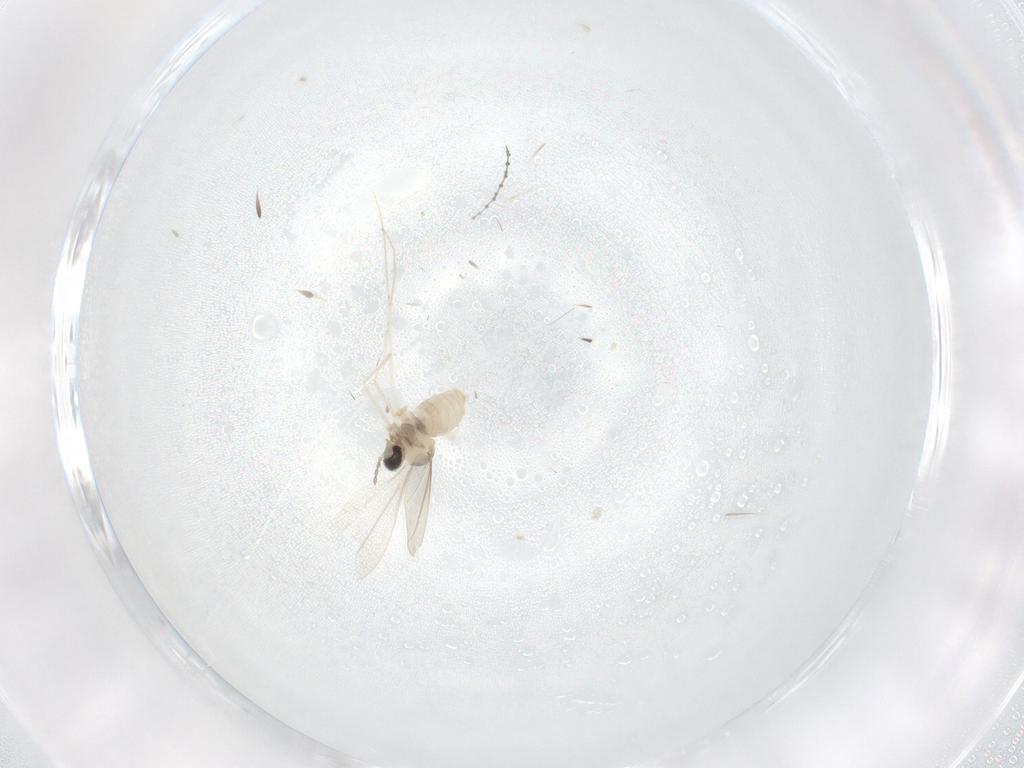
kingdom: Animalia
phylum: Arthropoda
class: Insecta
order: Diptera
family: Cecidomyiidae
